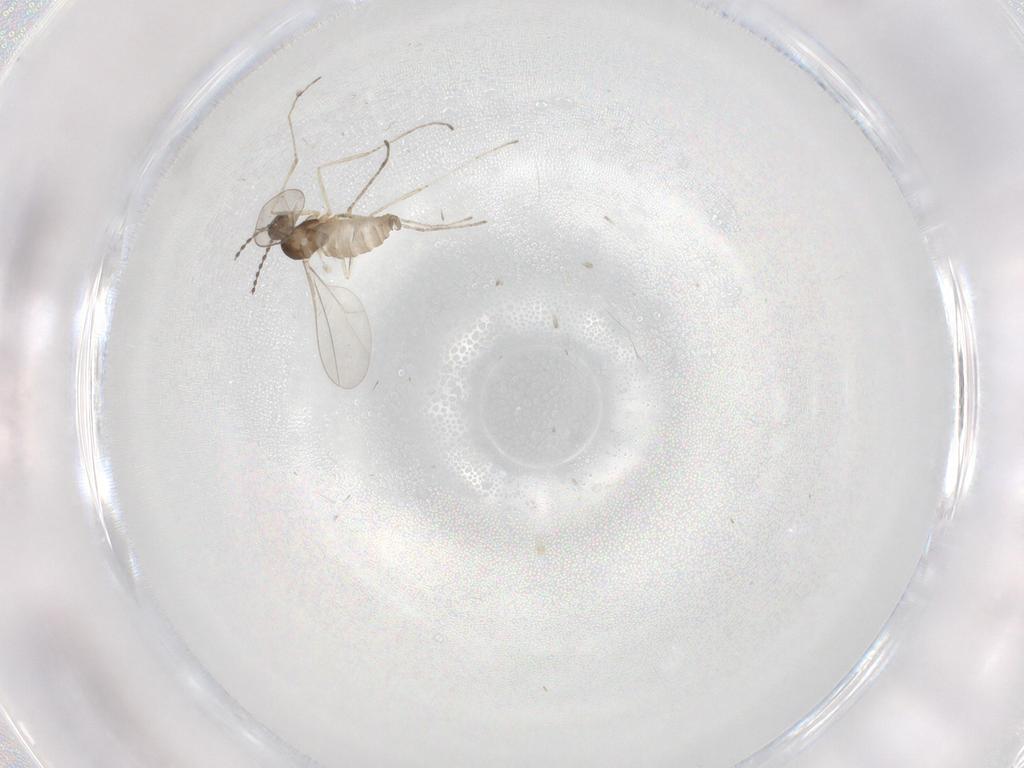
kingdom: Animalia
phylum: Arthropoda
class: Insecta
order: Diptera
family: Cecidomyiidae
